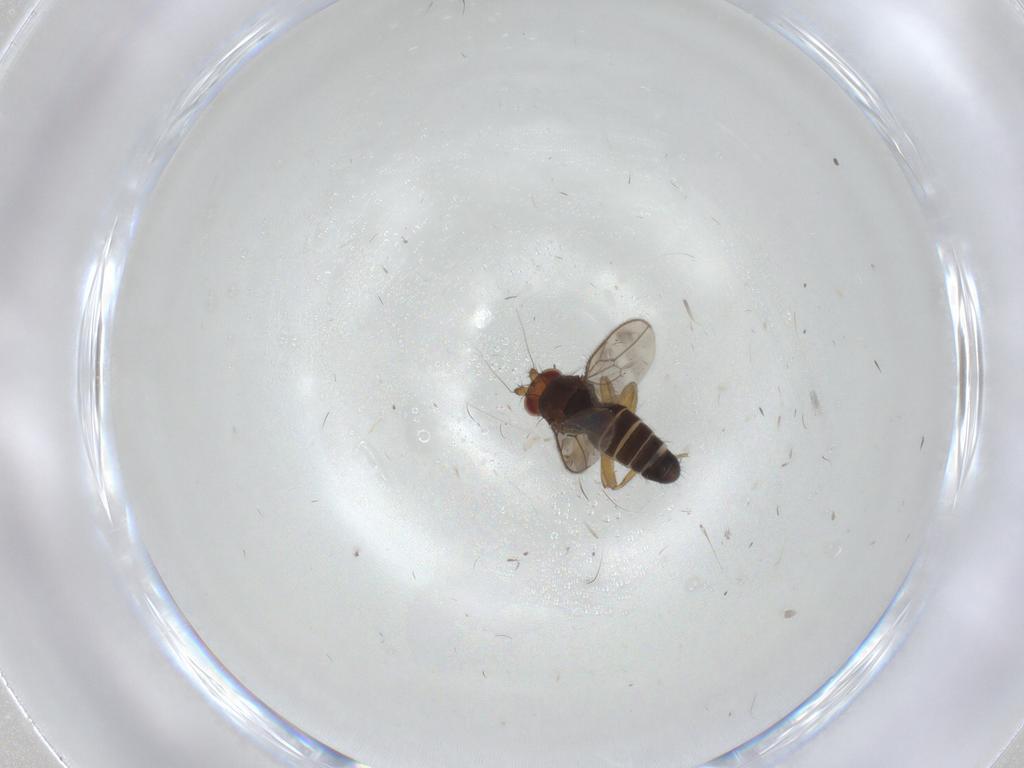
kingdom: Animalia
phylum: Arthropoda
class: Insecta
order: Diptera
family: Sphaeroceridae
